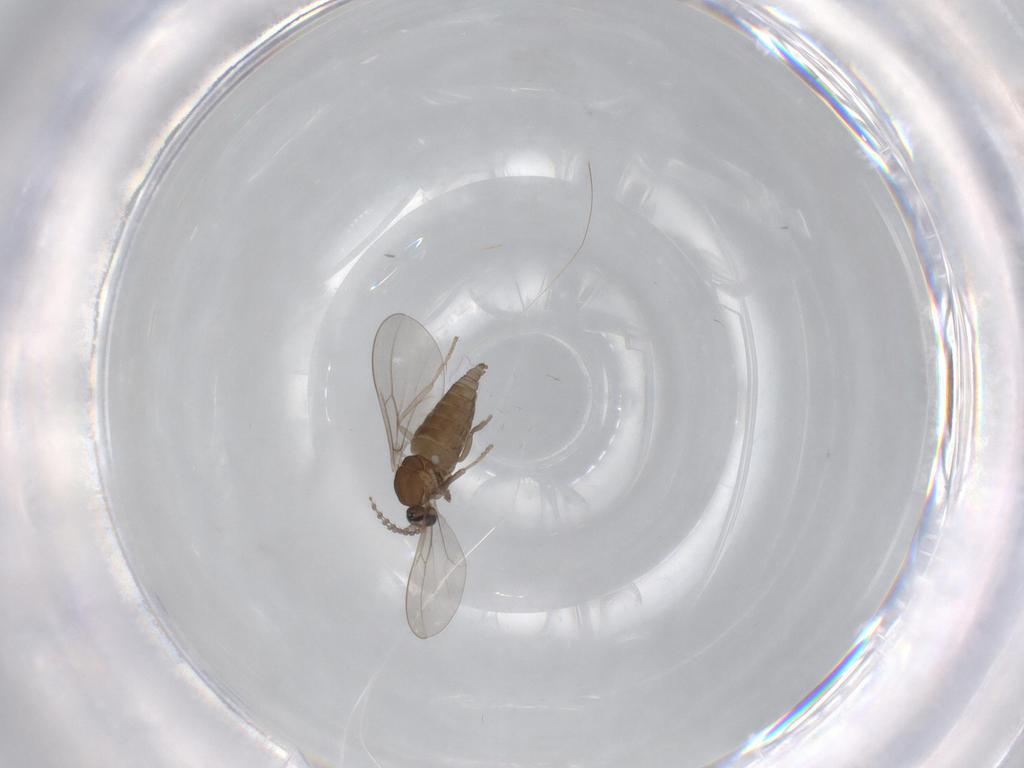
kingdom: Animalia
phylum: Arthropoda
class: Insecta
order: Diptera
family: Cecidomyiidae
